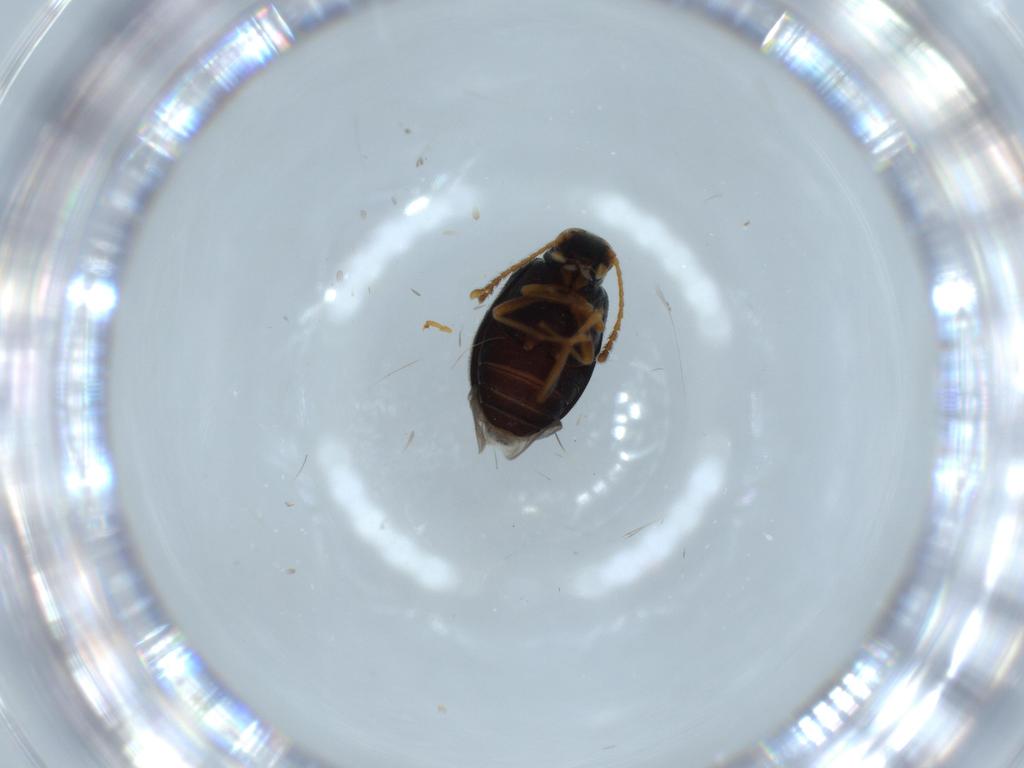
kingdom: Animalia
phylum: Arthropoda
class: Insecta
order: Coleoptera
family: Aderidae
